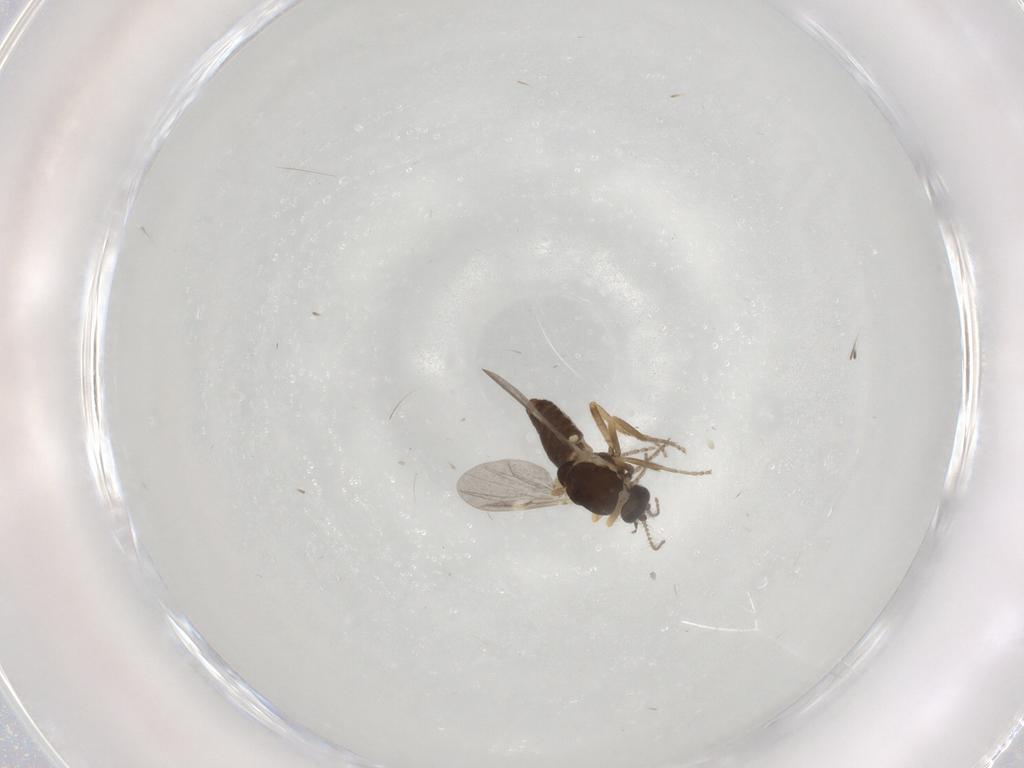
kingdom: Animalia
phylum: Arthropoda
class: Insecta
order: Diptera
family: Ceratopogonidae
